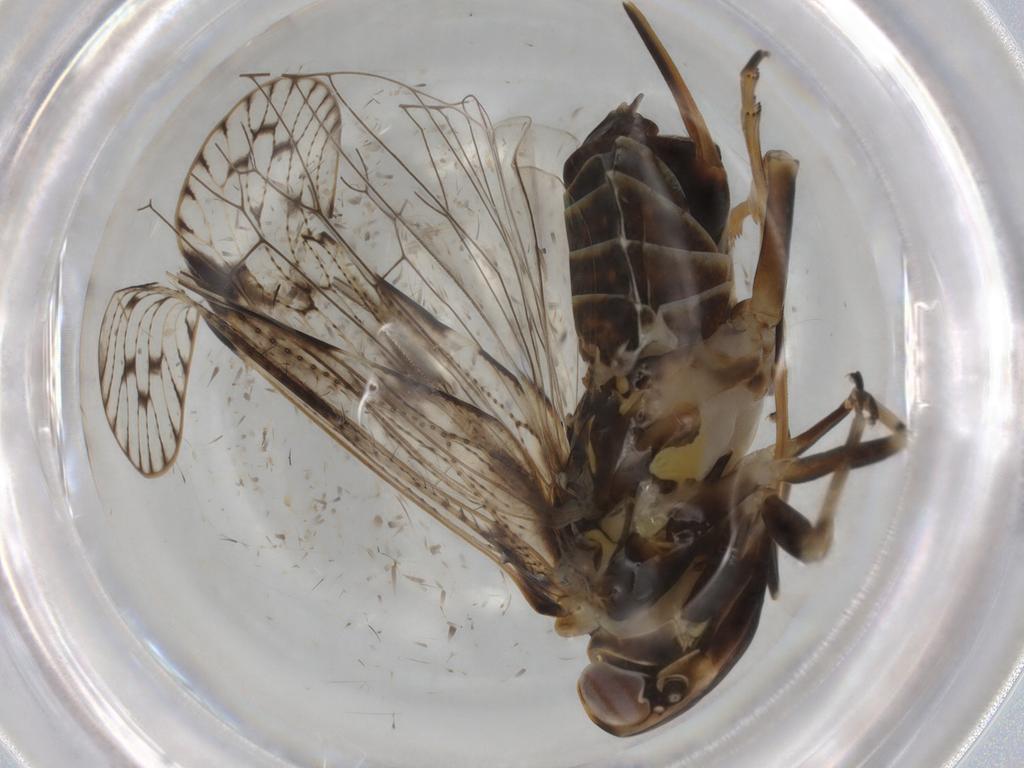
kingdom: Animalia
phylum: Arthropoda
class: Insecta
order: Hemiptera
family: Cixiidae
